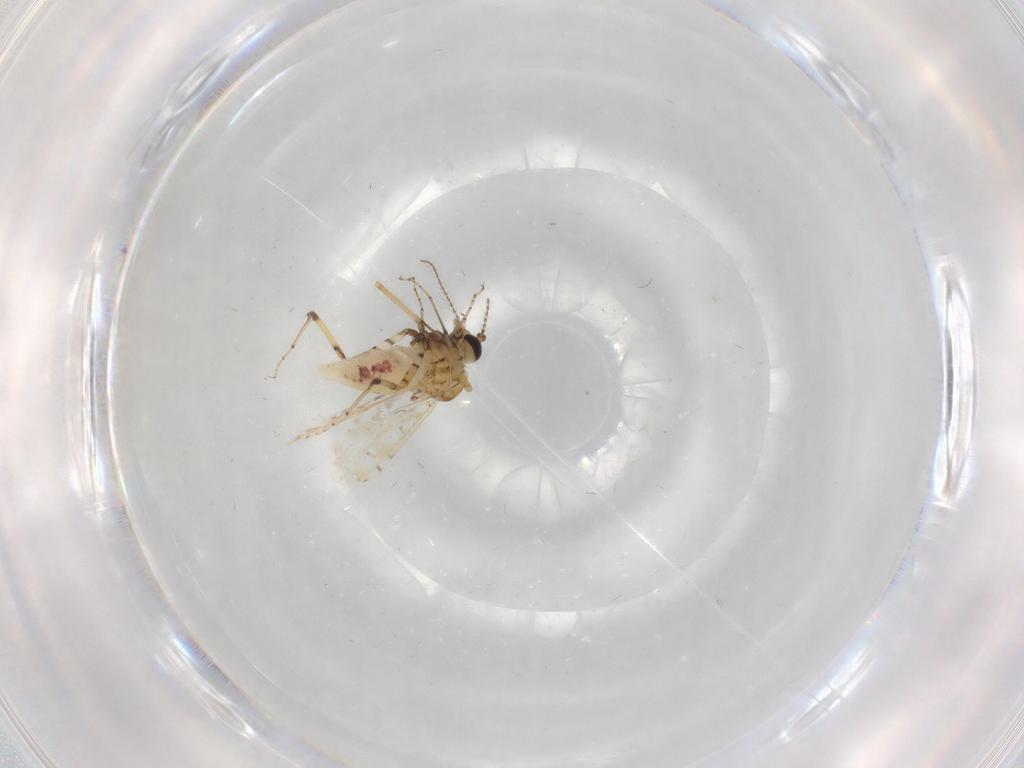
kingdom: Animalia
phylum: Arthropoda
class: Insecta
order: Diptera
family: Ceratopogonidae
